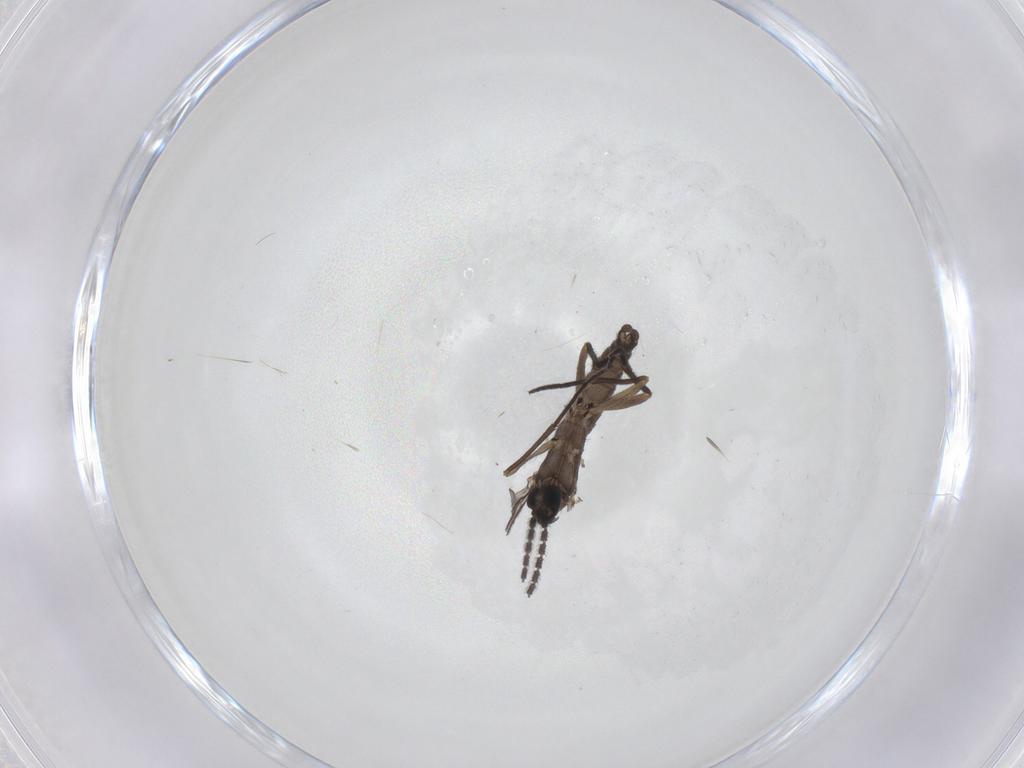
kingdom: Animalia
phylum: Arthropoda
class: Insecta
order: Diptera
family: Sciaridae
